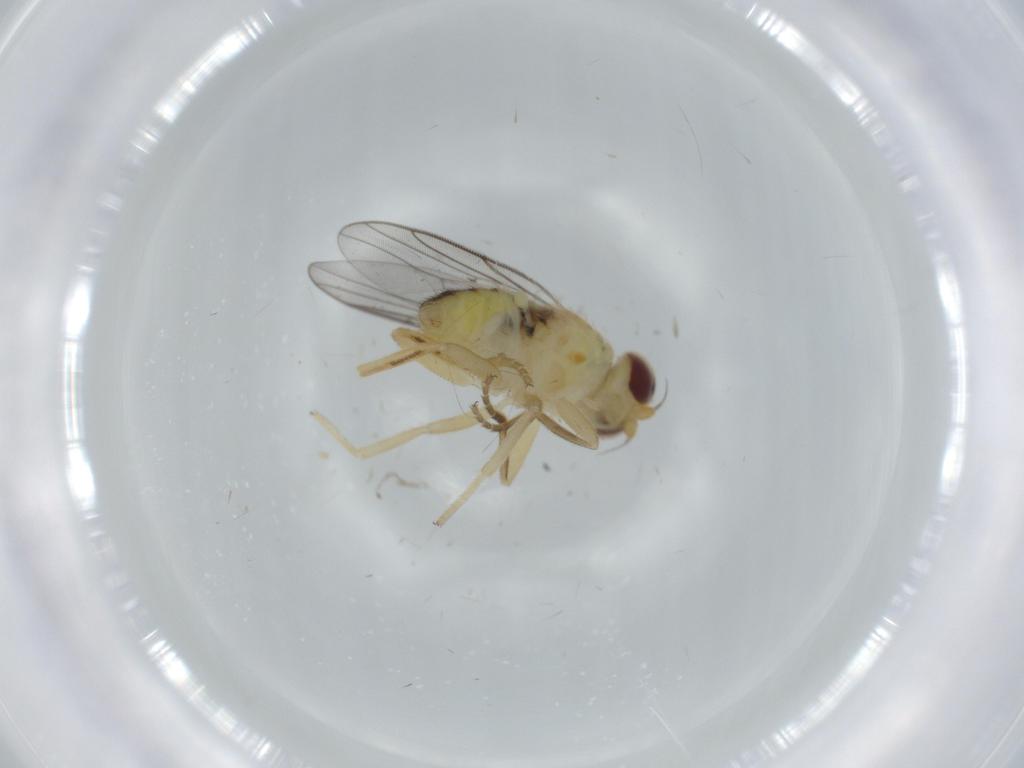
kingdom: Animalia
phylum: Arthropoda
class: Insecta
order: Diptera
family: Chloropidae
